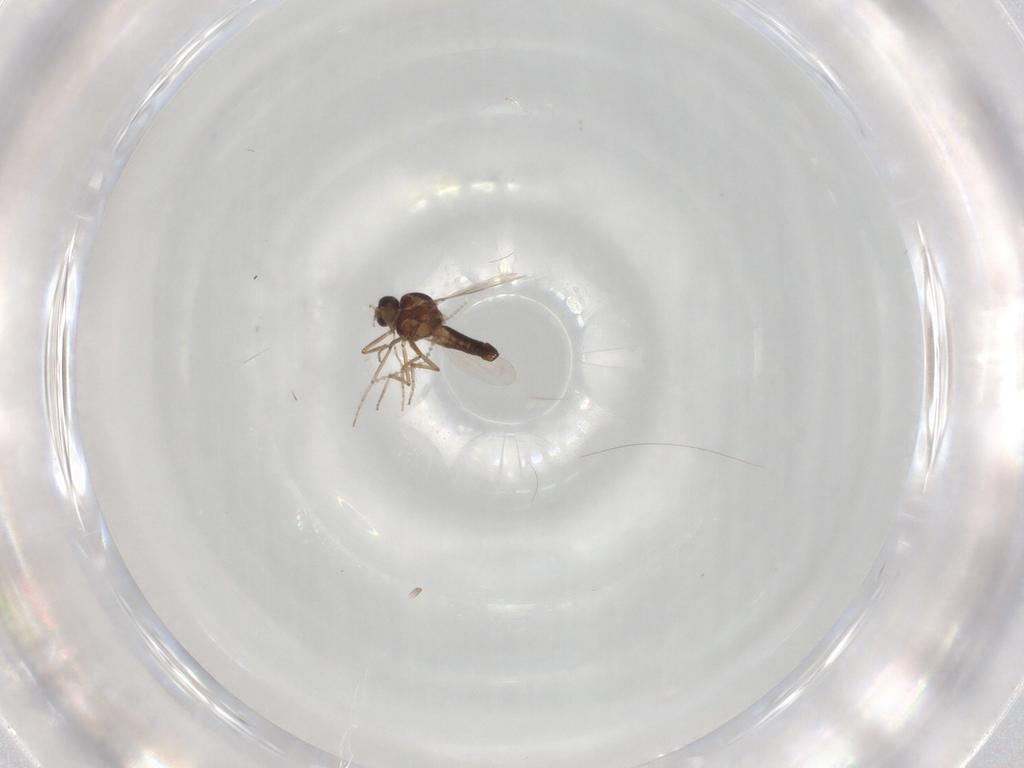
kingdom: Animalia
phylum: Arthropoda
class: Insecta
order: Diptera
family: Ceratopogonidae
